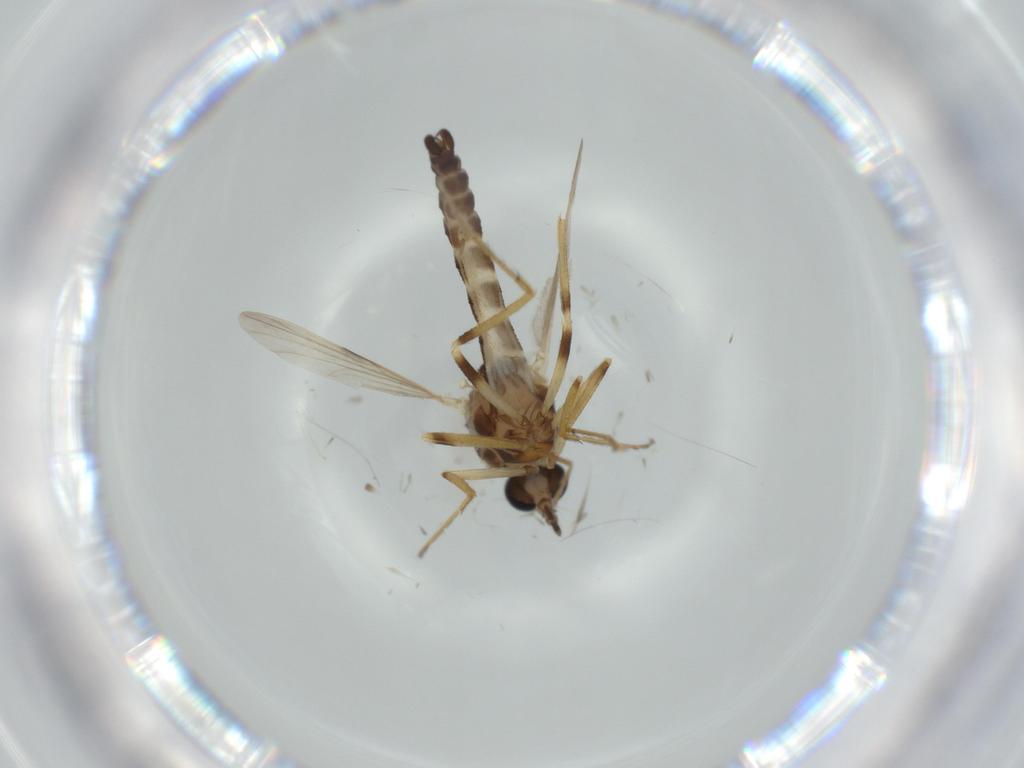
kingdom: Animalia
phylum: Arthropoda
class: Insecta
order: Diptera
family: Ceratopogonidae
